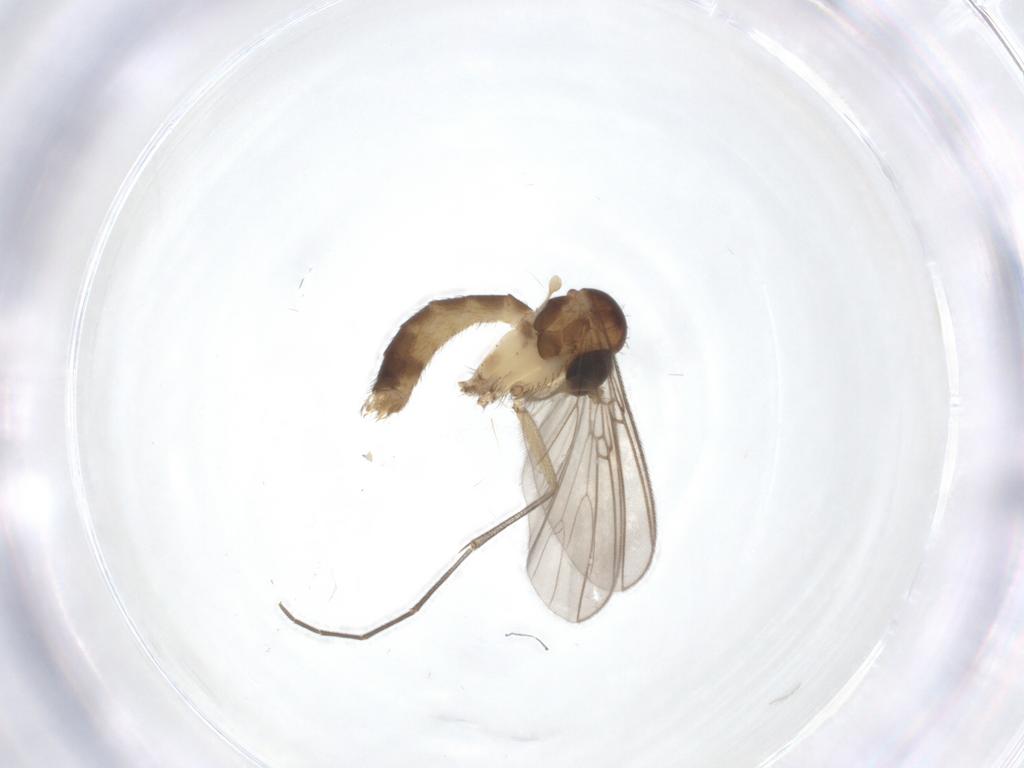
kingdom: Animalia
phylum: Arthropoda
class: Insecta
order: Diptera
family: Mycetophilidae
